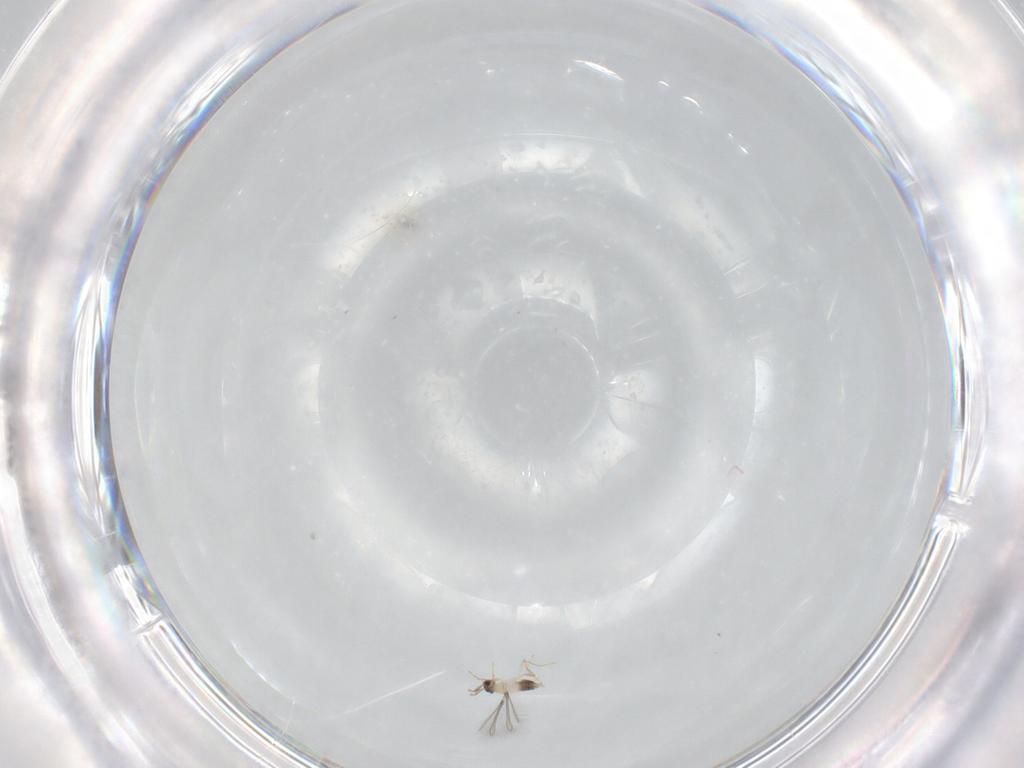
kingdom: Animalia
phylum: Arthropoda
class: Insecta
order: Hymenoptera
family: Mymaridae
